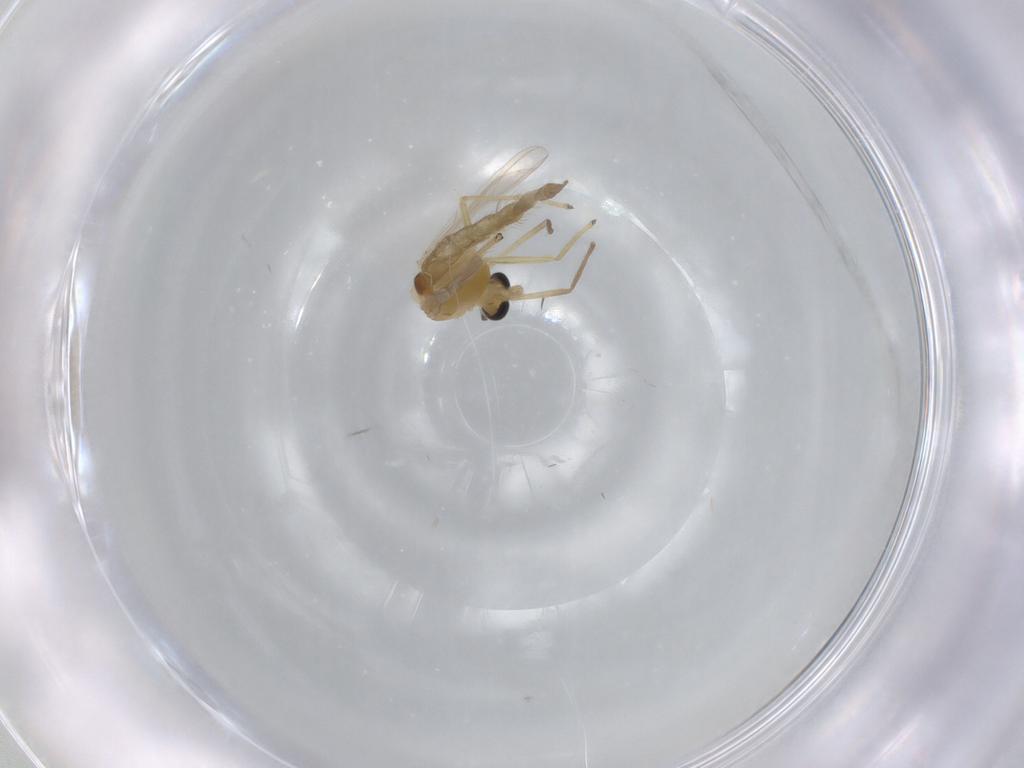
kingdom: Animalia
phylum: Arthropoda
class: Insecta
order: Diptera
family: Chironomidae
